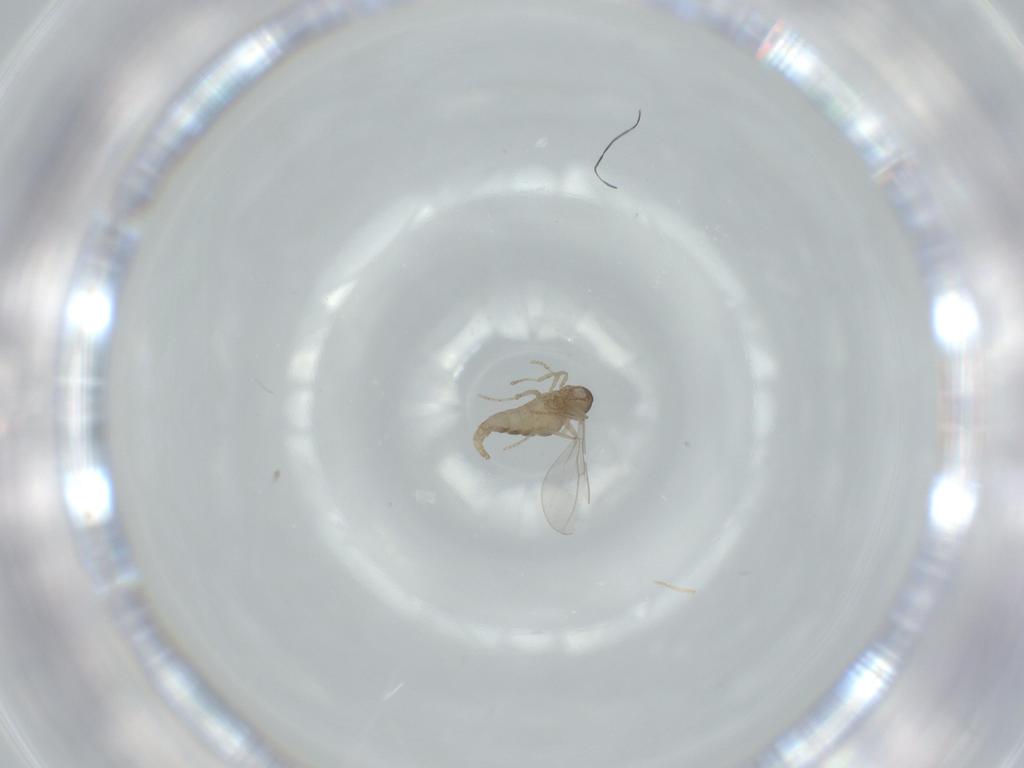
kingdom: Animalia
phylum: Arthropoda
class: Insecta
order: Diptera
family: Cecidomyiidae
